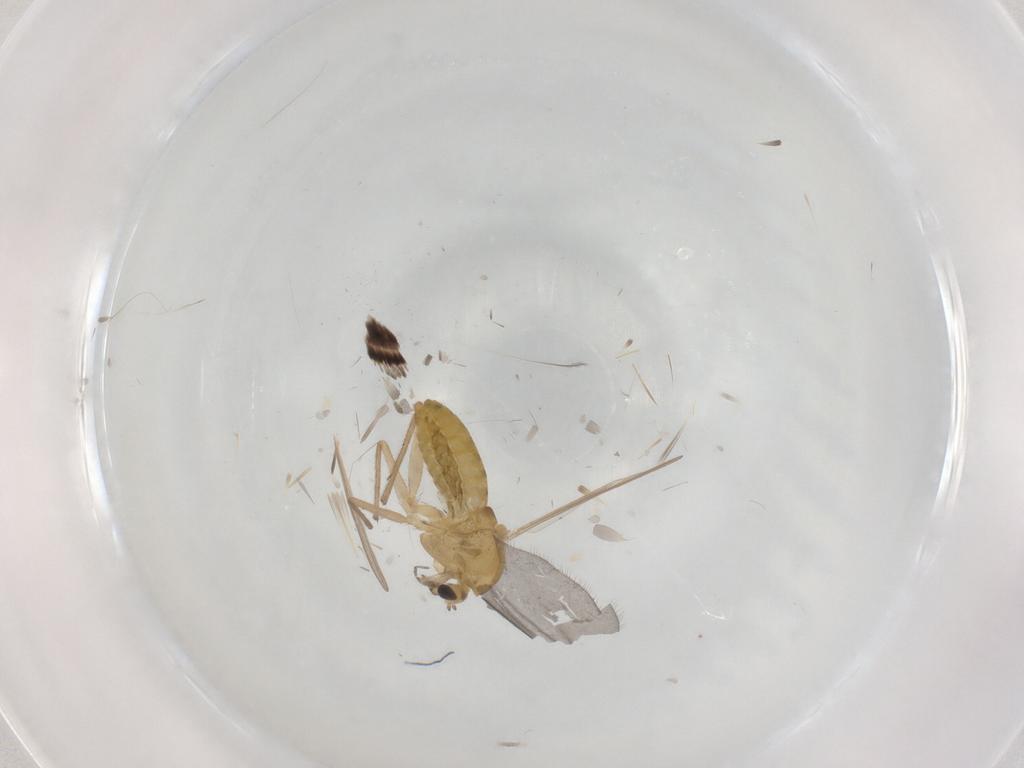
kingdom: Animalia
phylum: Arthropoda
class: Insecta
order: Diptera
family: Chironomidae
